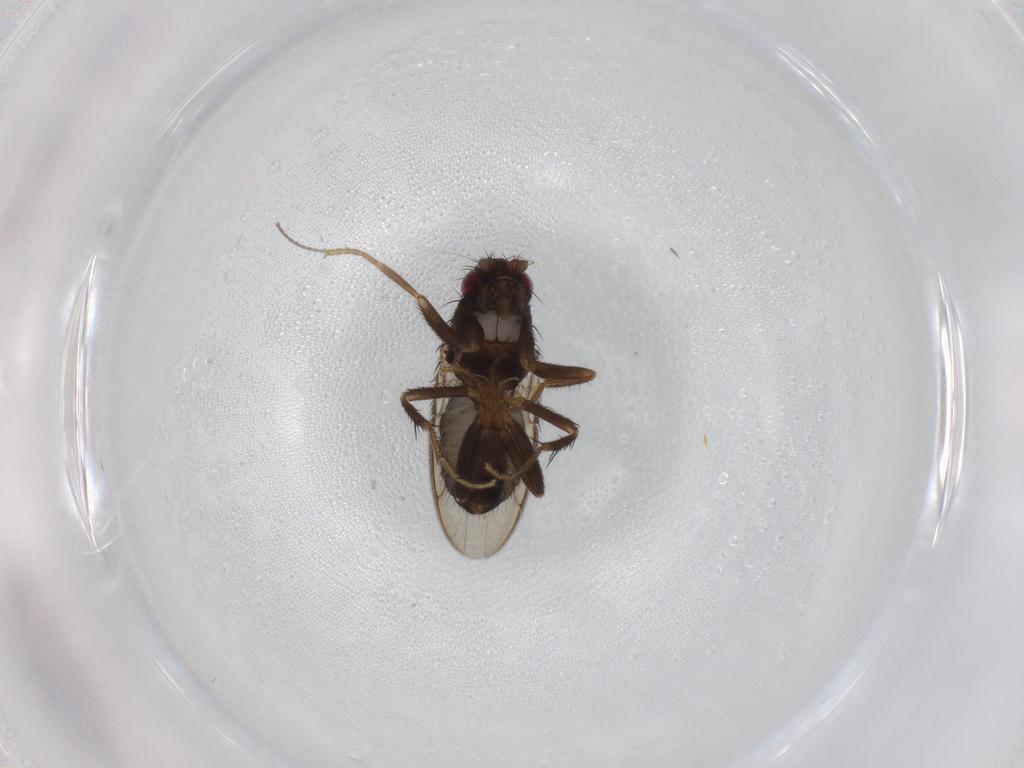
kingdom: Animalia
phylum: Arthropoda
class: Insecta
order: Diptera
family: Sphaeroceridae
